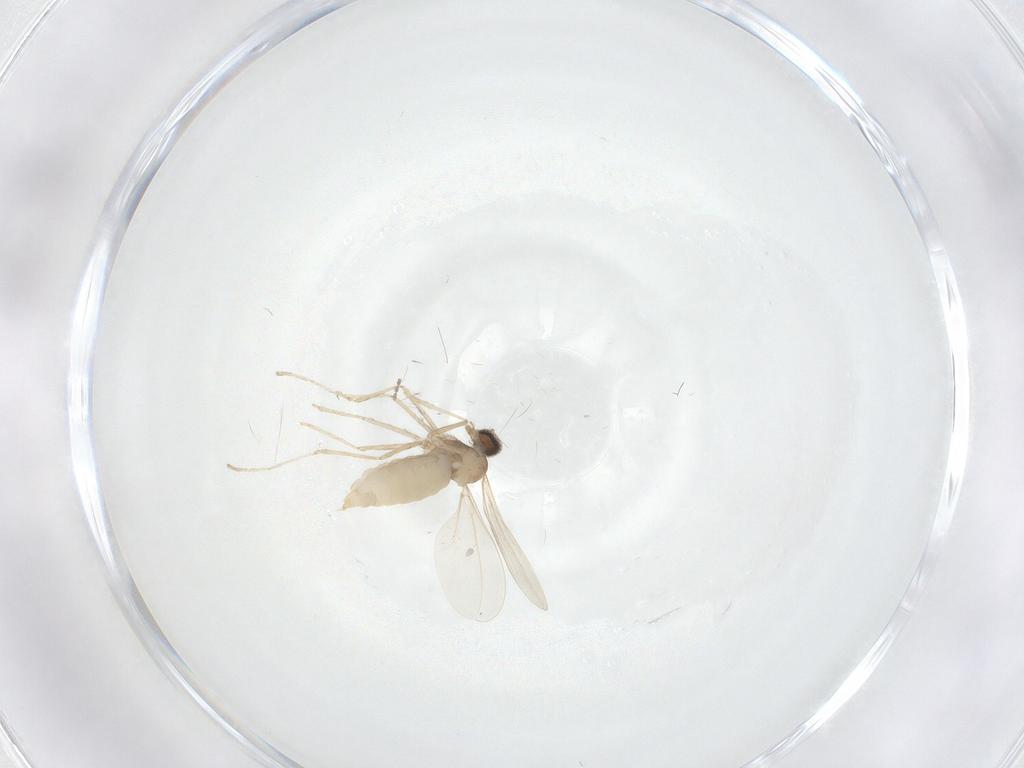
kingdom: Animalia
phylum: Arthropoda
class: Insecta
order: Diptera
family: Cecidomyiidae
